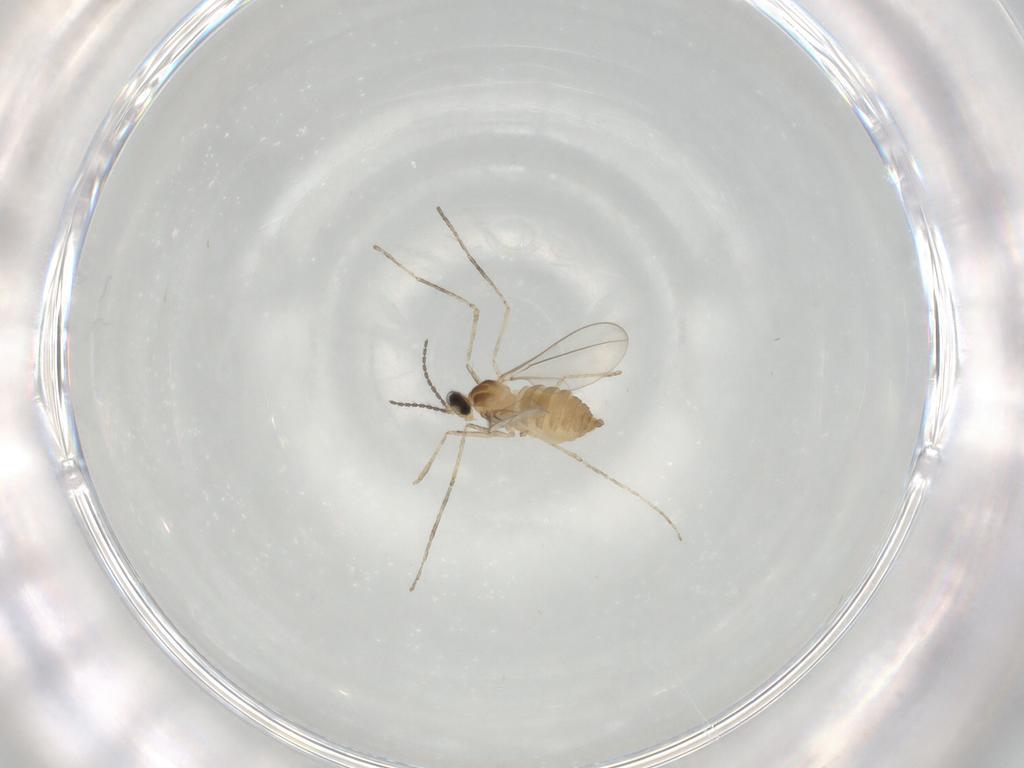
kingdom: Animalia
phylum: Arthropoda
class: Insecta
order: Diptera
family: Cecidomyiidae
